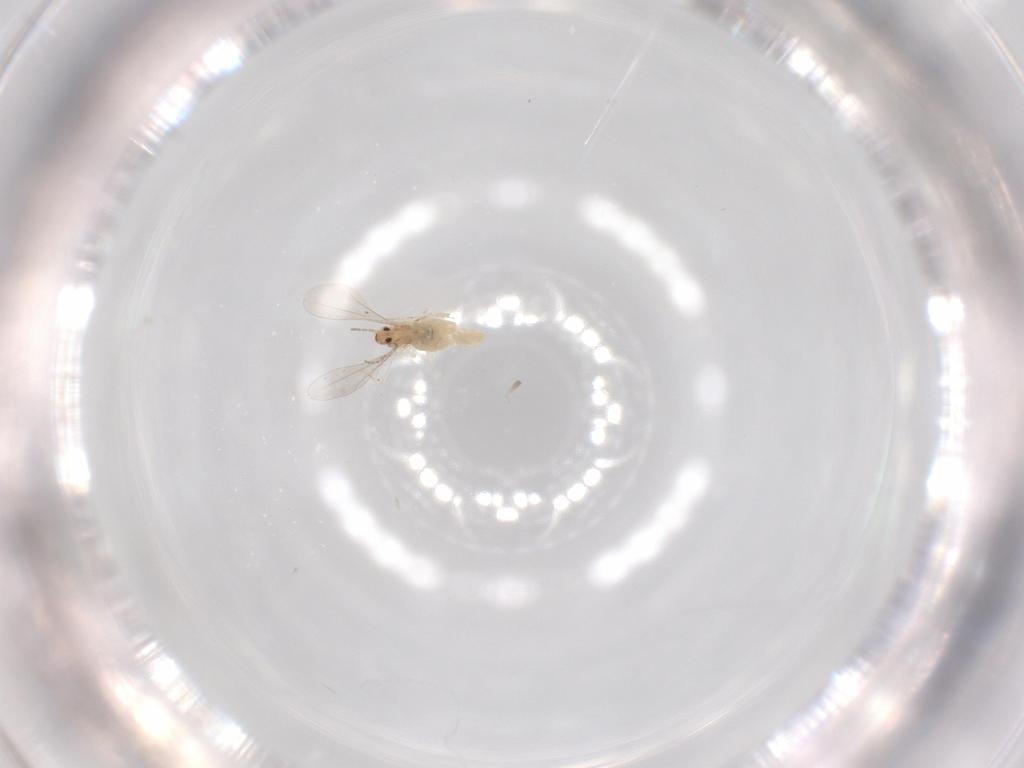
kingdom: Animalia
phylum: Arthropoda
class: Insecta
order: Diptera
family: Cecidomyiidae
